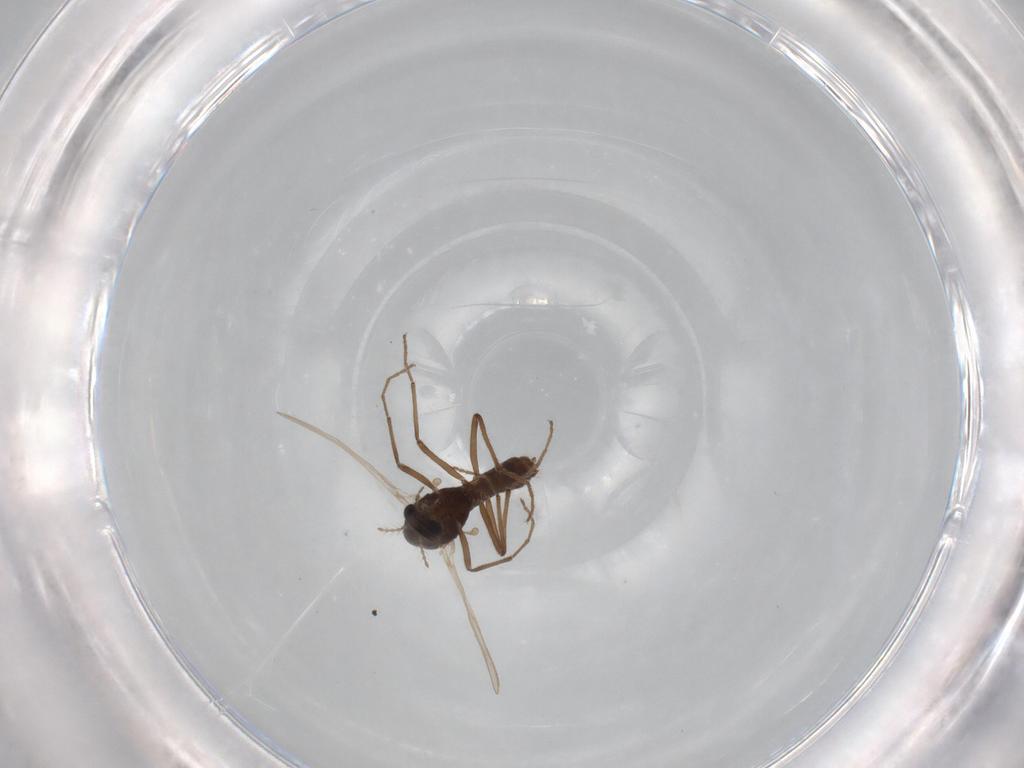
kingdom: Animalia
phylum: Arthropoda
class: Insecta
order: Diptera
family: Chironomidae
